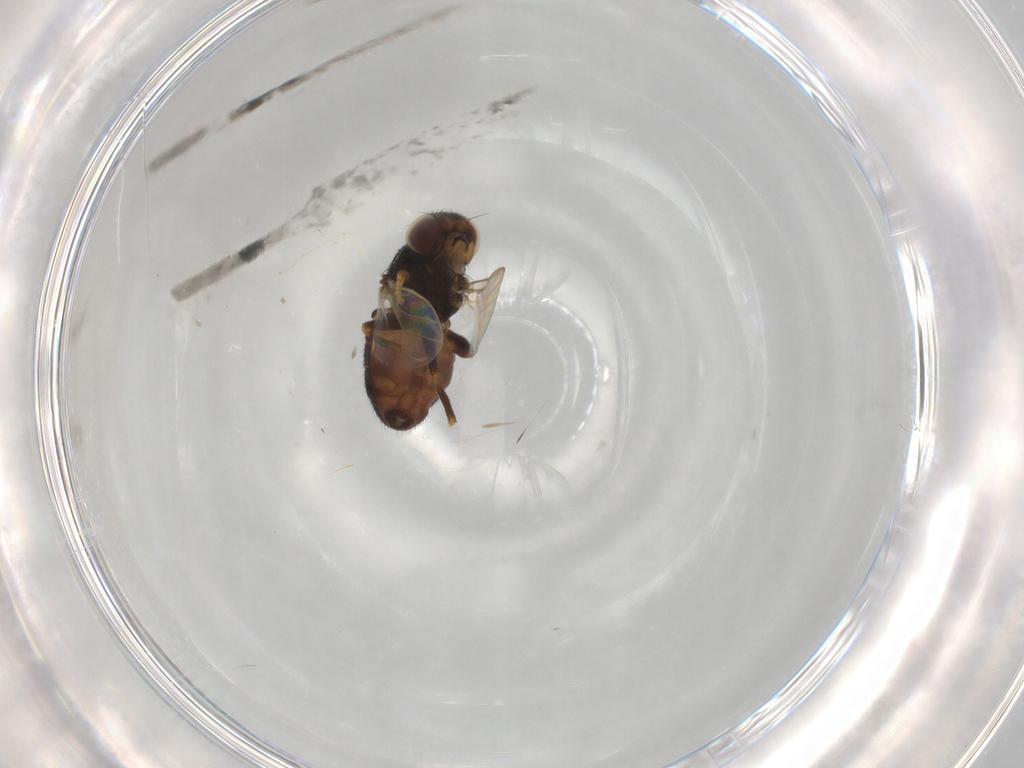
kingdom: Animalia
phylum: Arthropoda
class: Insecta
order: Diptera
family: Chloropidae
